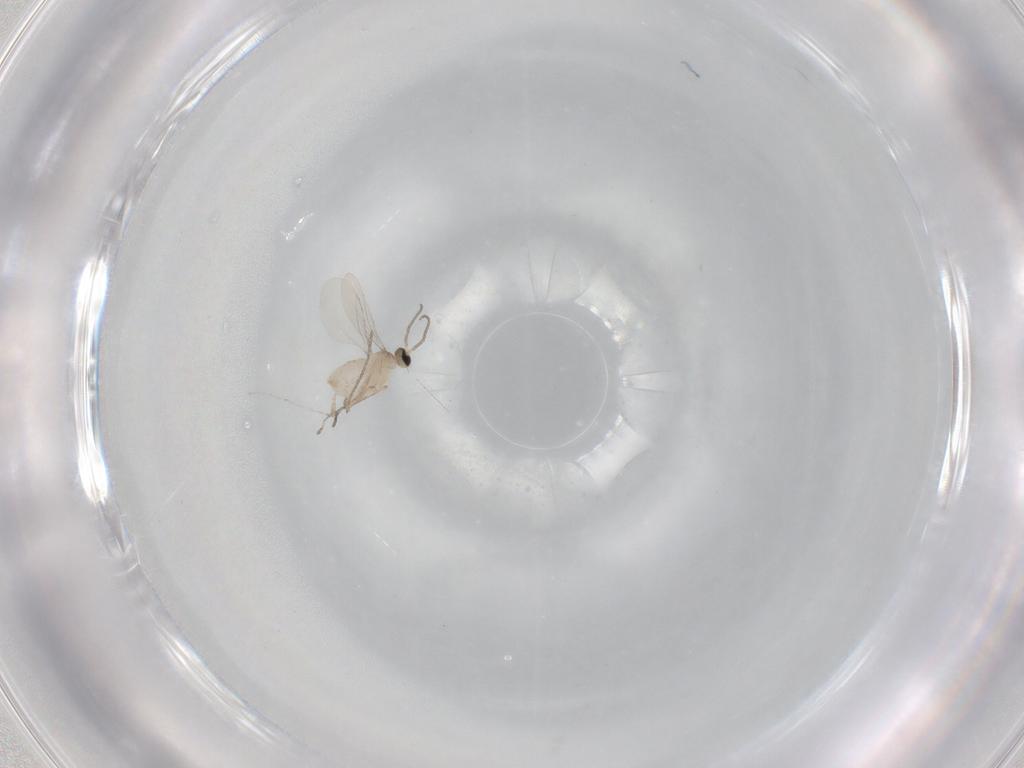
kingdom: Animalia
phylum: Arthropoda
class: Insecta
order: Diptera
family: Cecidomyiidae
